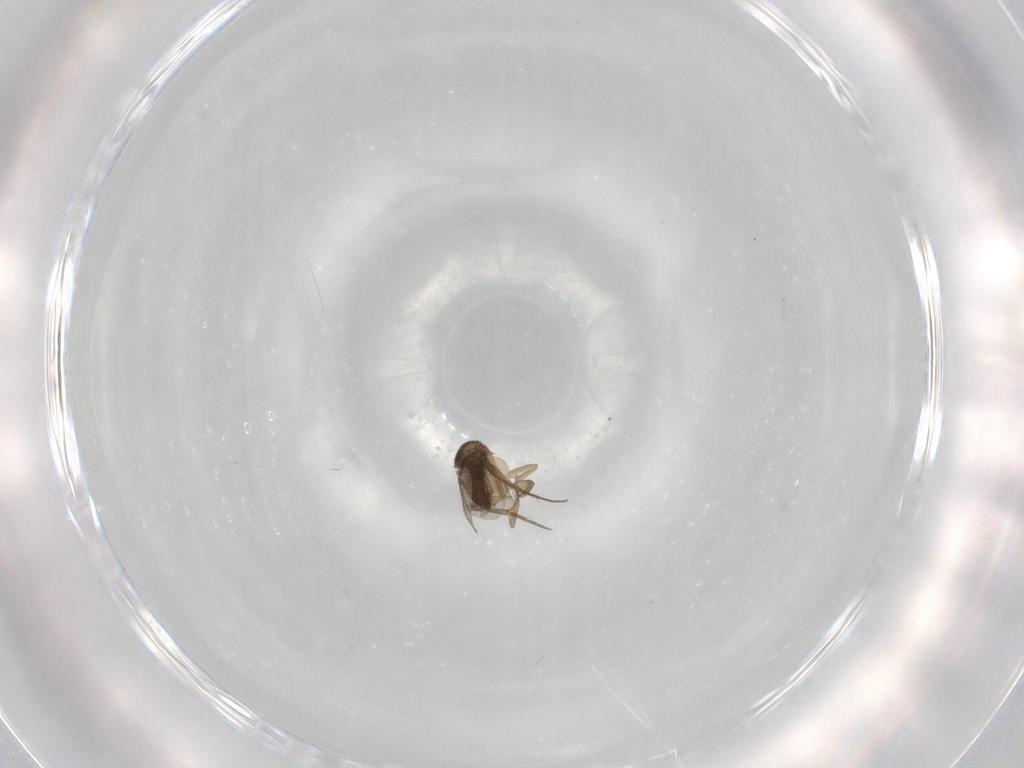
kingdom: Animalia
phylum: Arthropoda
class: Insecta
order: Diptera
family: Phoridae
